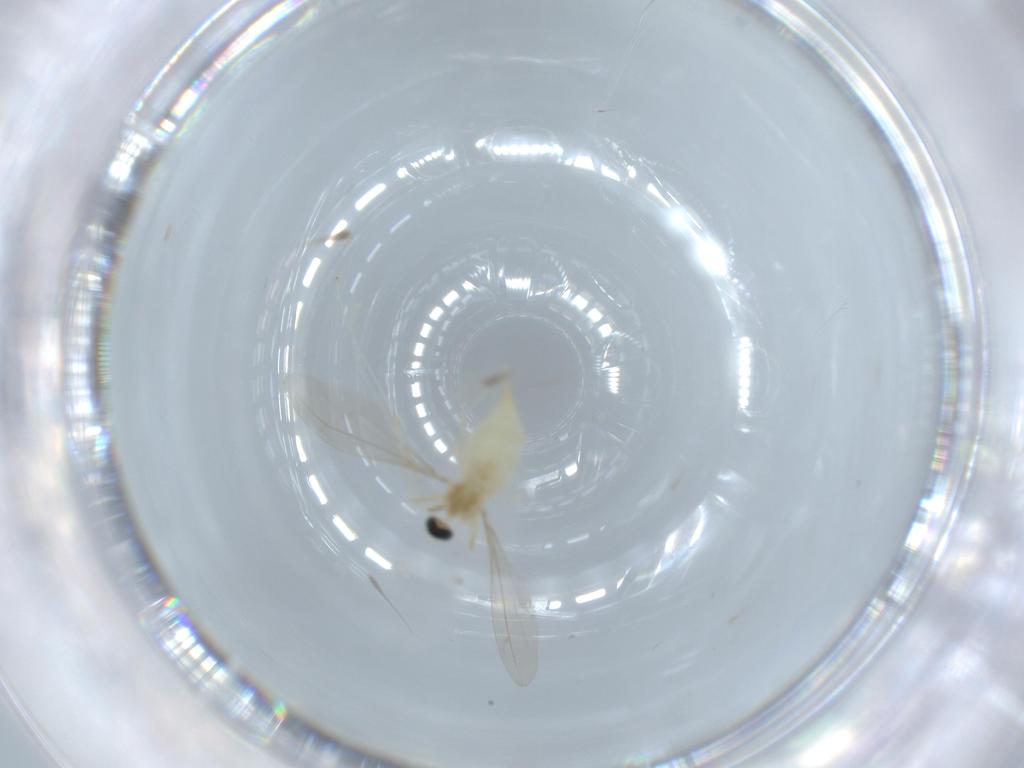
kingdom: Animalia
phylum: Arthropoda
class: Insecta
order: Diptera
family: Cecidomyiidae
